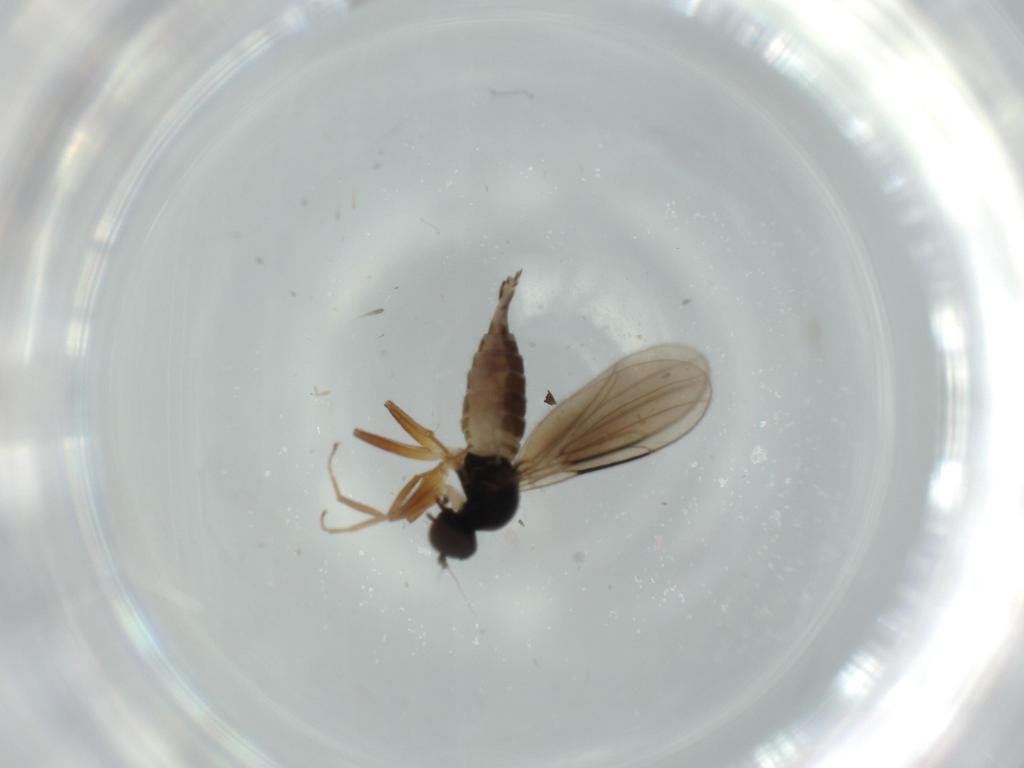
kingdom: Animalia
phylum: Arthropoda
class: Insecta
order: Diptera
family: Hybotidae
